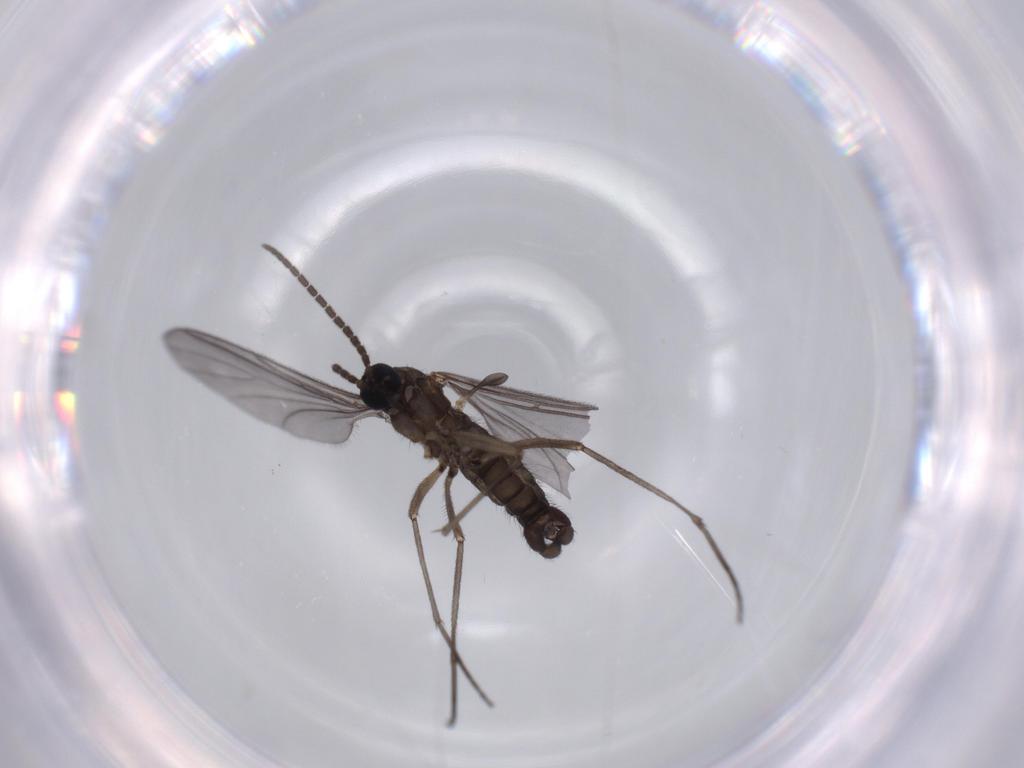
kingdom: Animalia
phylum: Arthropoda
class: Insecta
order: Diptera
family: Sciaridae
